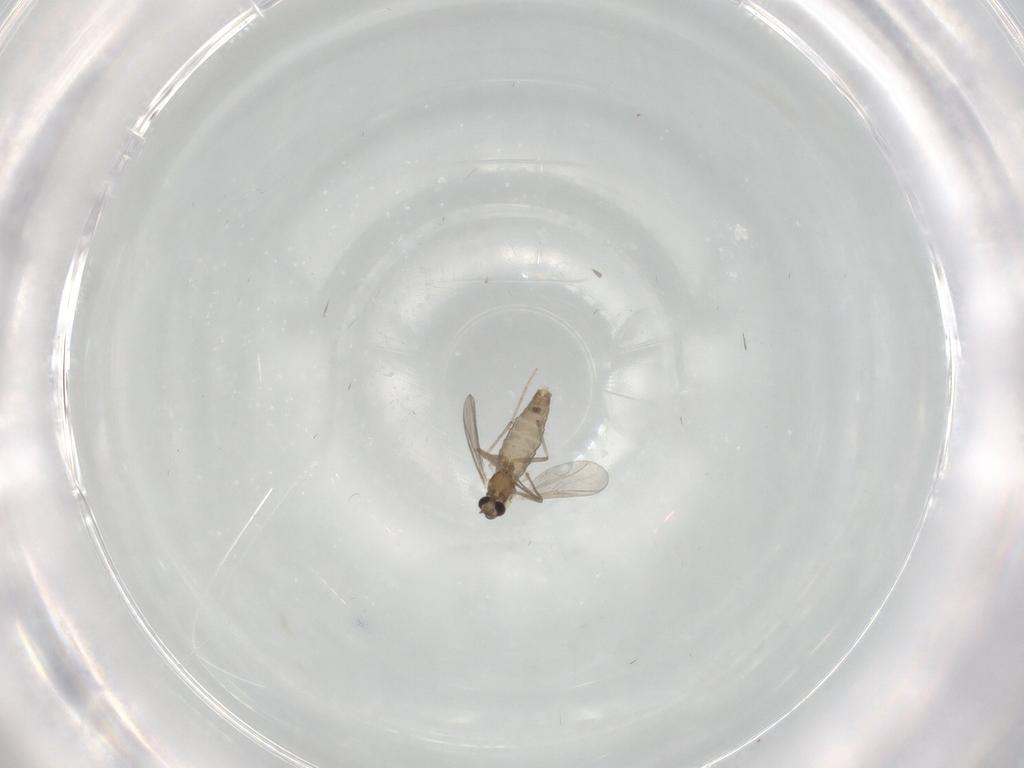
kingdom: Animalia
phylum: Arthropoda
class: Insecta
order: Diptera
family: Chironomidae
